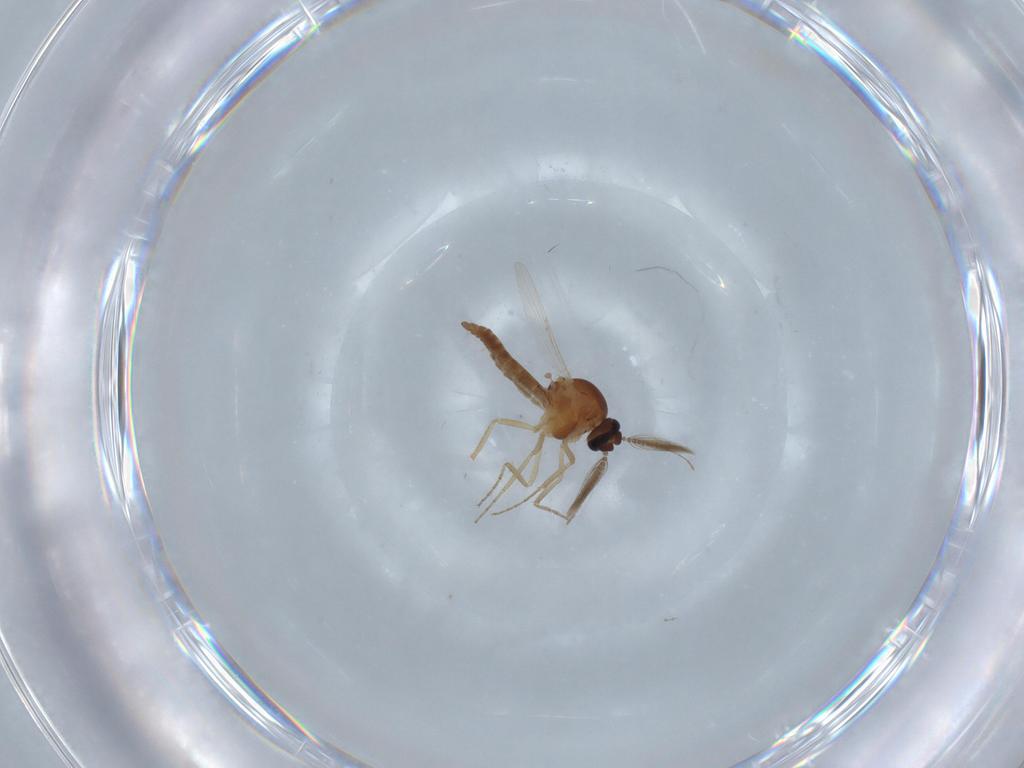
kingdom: Animalia
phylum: Arthropoda
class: Insecta
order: Diptera
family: Ceratopogonidae
